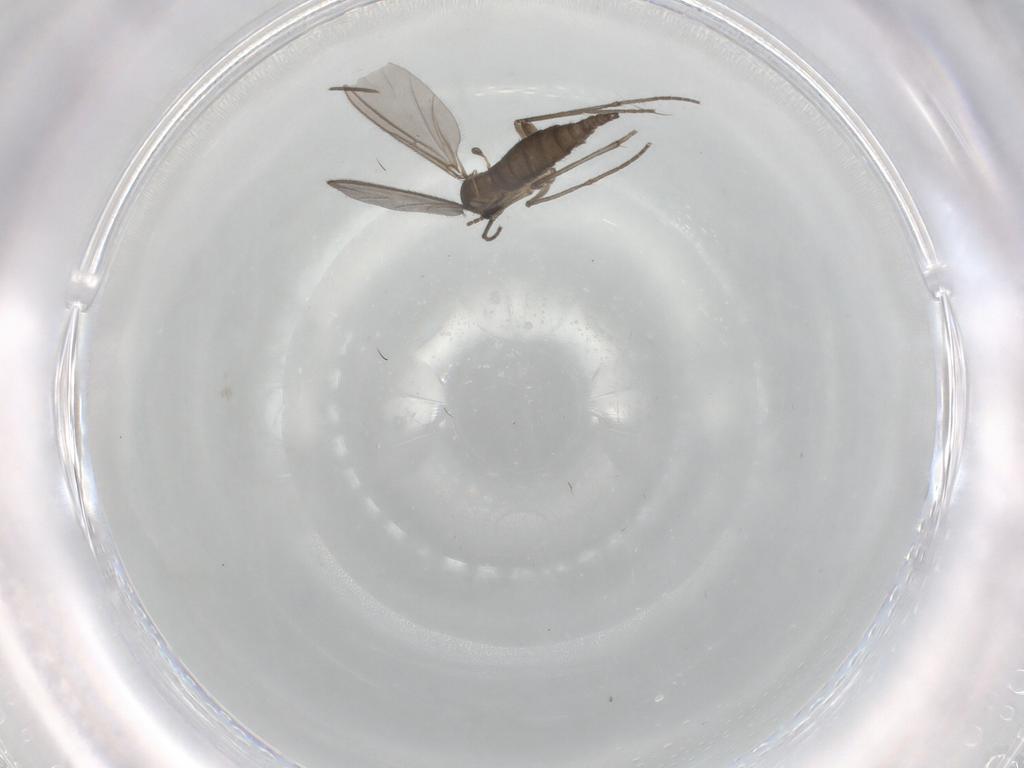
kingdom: Animalia
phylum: Arthropoda
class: Insecta
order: Diptera
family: Sciaridae
